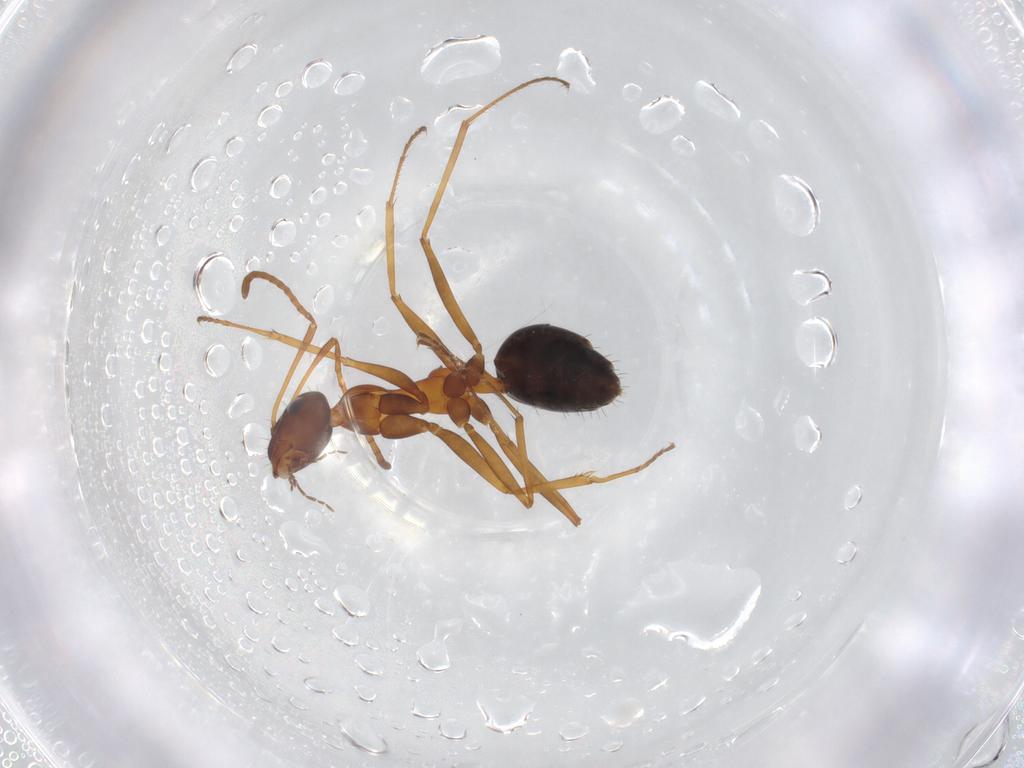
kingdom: Animalia
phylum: Arthropoda
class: Insecta
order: Hymenoptera
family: Formicidae
